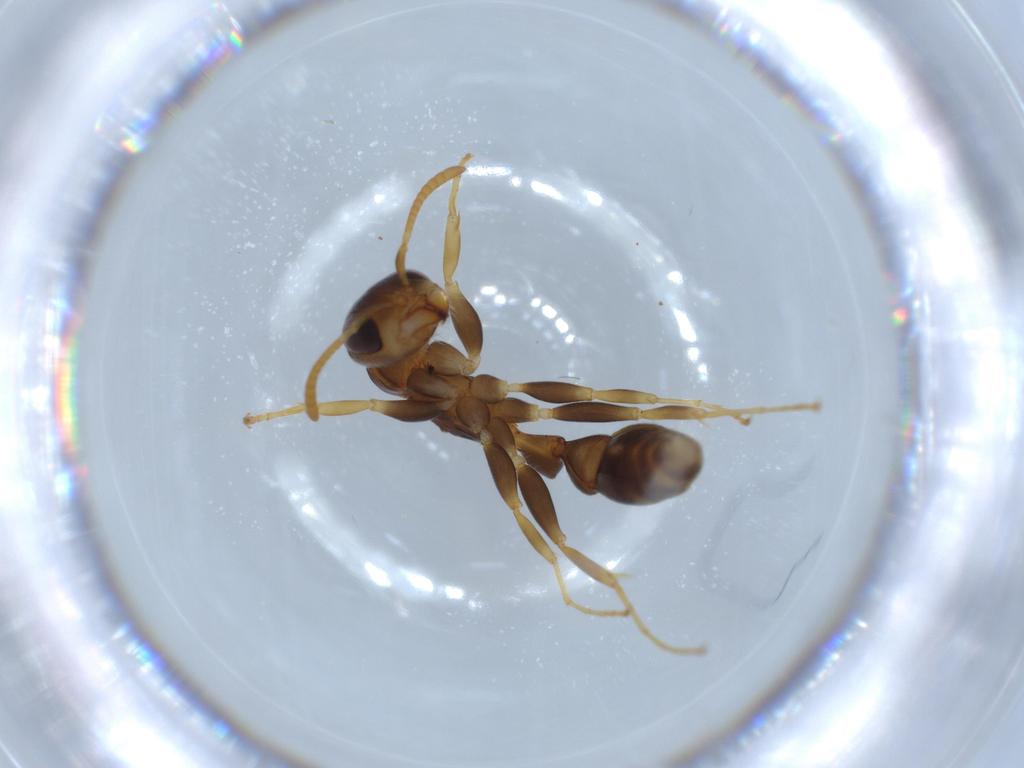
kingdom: Animalia
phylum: Arthropoda
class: Insecta
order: Hymenoptera
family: Formicidae
